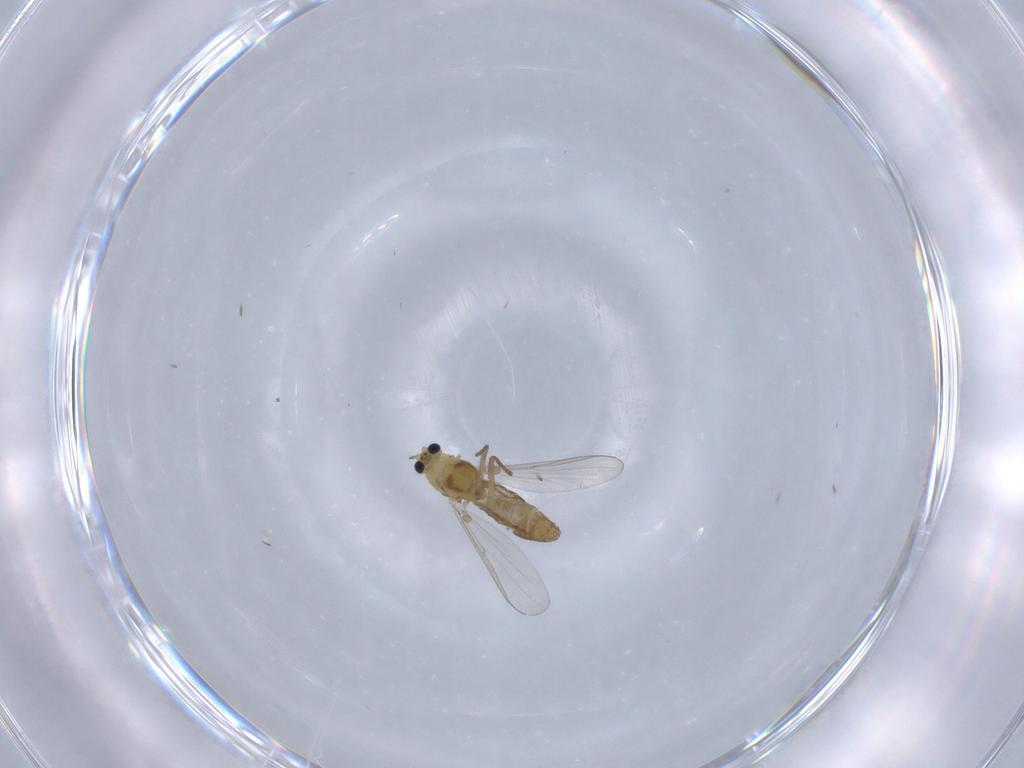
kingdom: Animalia
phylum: Arthropoda
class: Insecta
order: Diptera
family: Chironomidae
